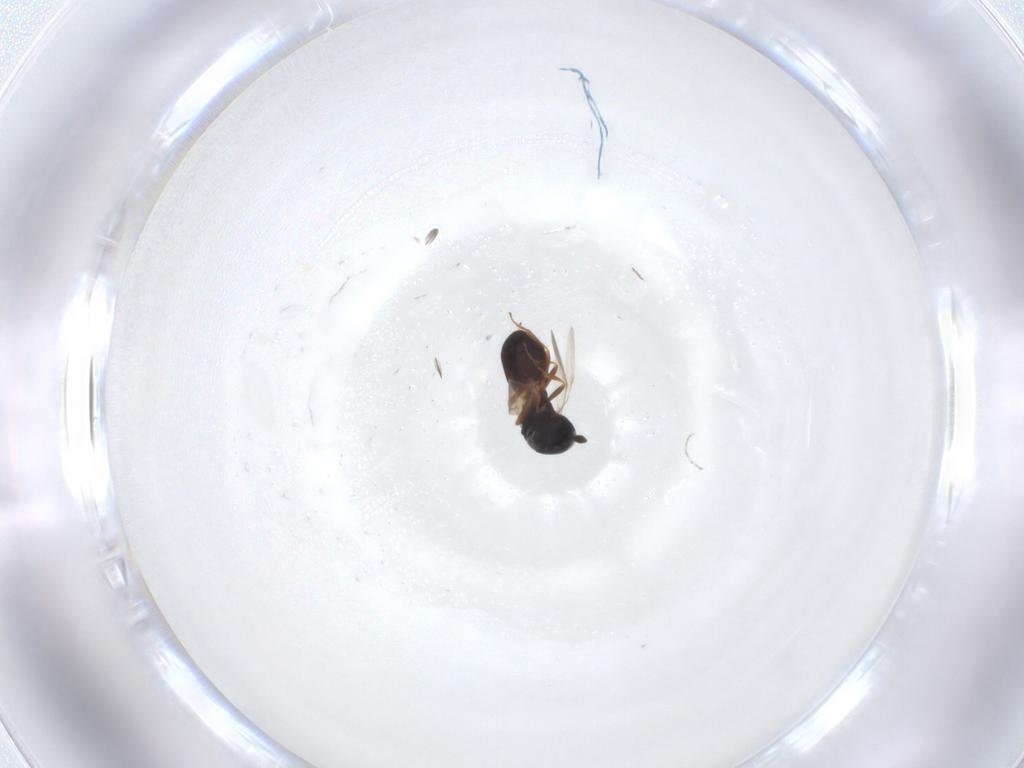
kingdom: Animalia
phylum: Arthropoda
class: Insecta
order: Hymenoptera
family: Scelionidae
